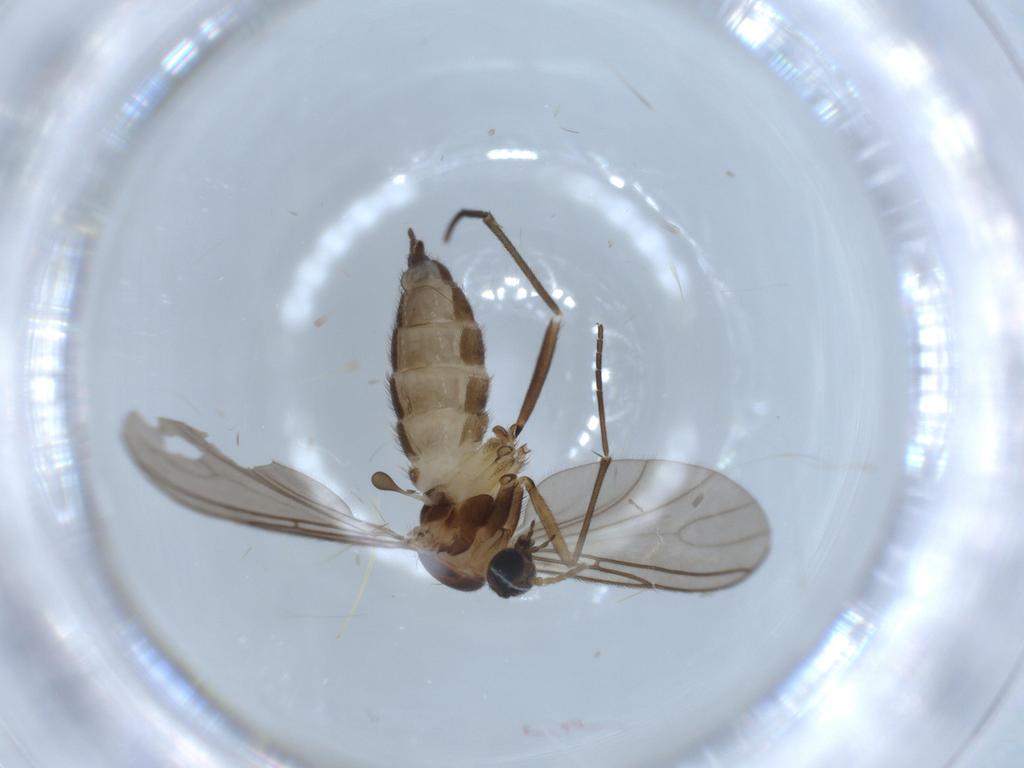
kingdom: Animalia
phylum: Arthropoda
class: Insecta
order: Diptera
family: Sciaridae
